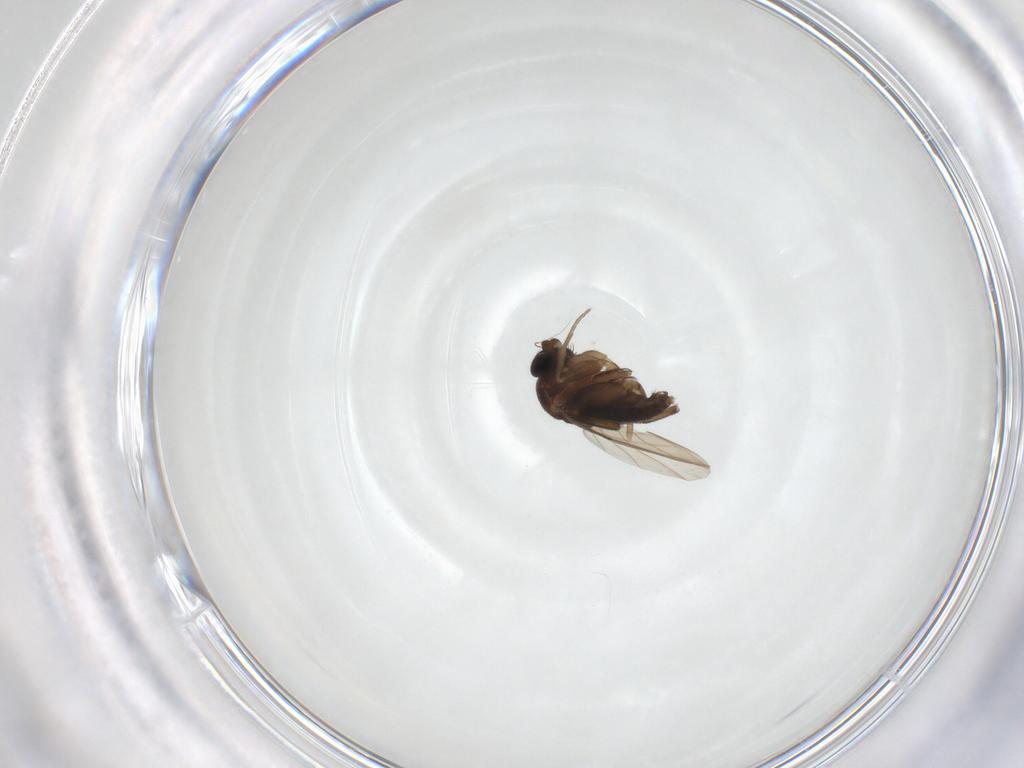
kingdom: Animalia
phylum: Arthropoda
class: Insecta
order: Diptera
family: Phoridae
